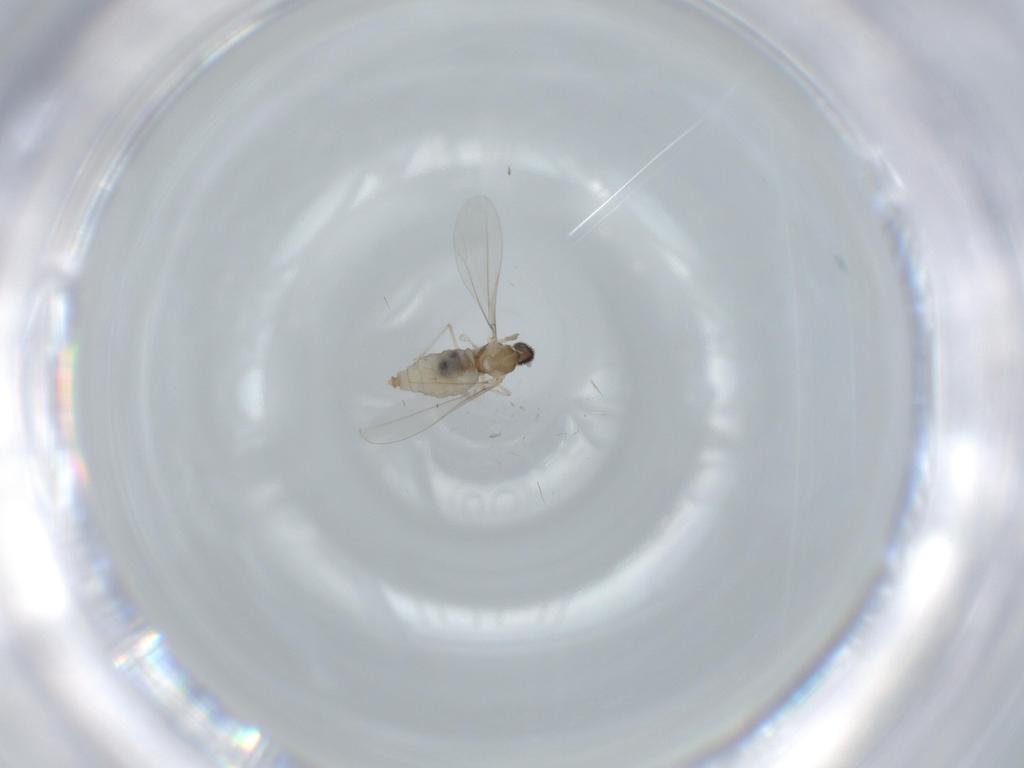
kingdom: Animalia
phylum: Arthropoda
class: Insecta
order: Diptera
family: Cecidomyiidae
